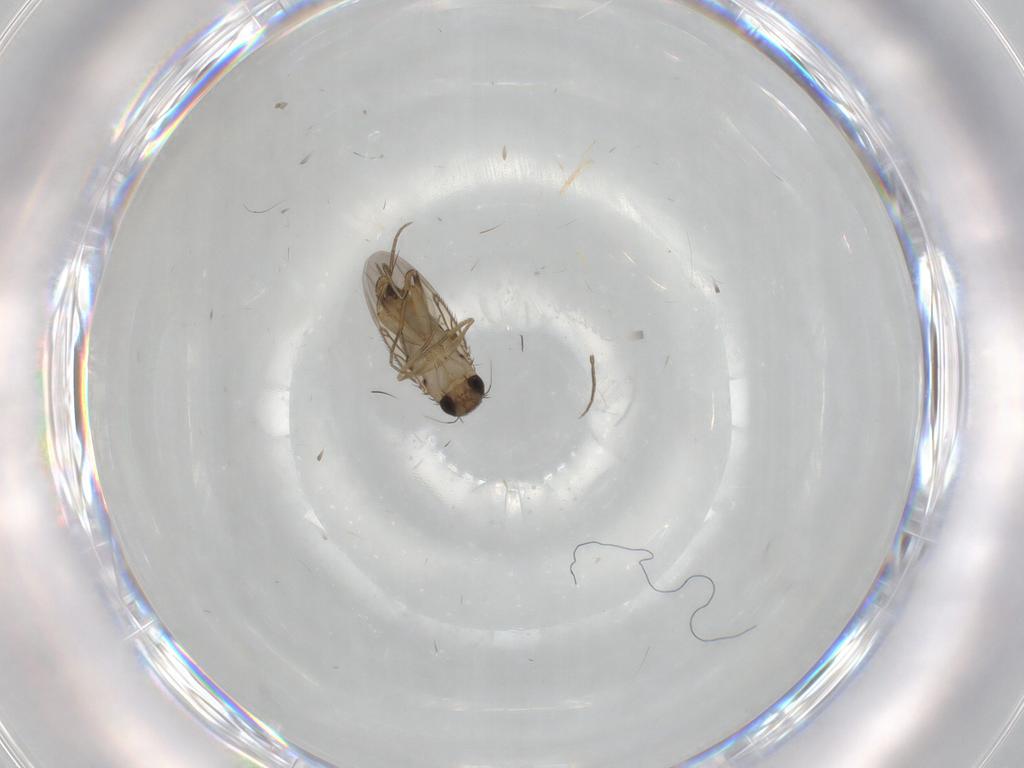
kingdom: Animalia
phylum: Arthropoda
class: Insecta
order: Diptera
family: Phoridae
